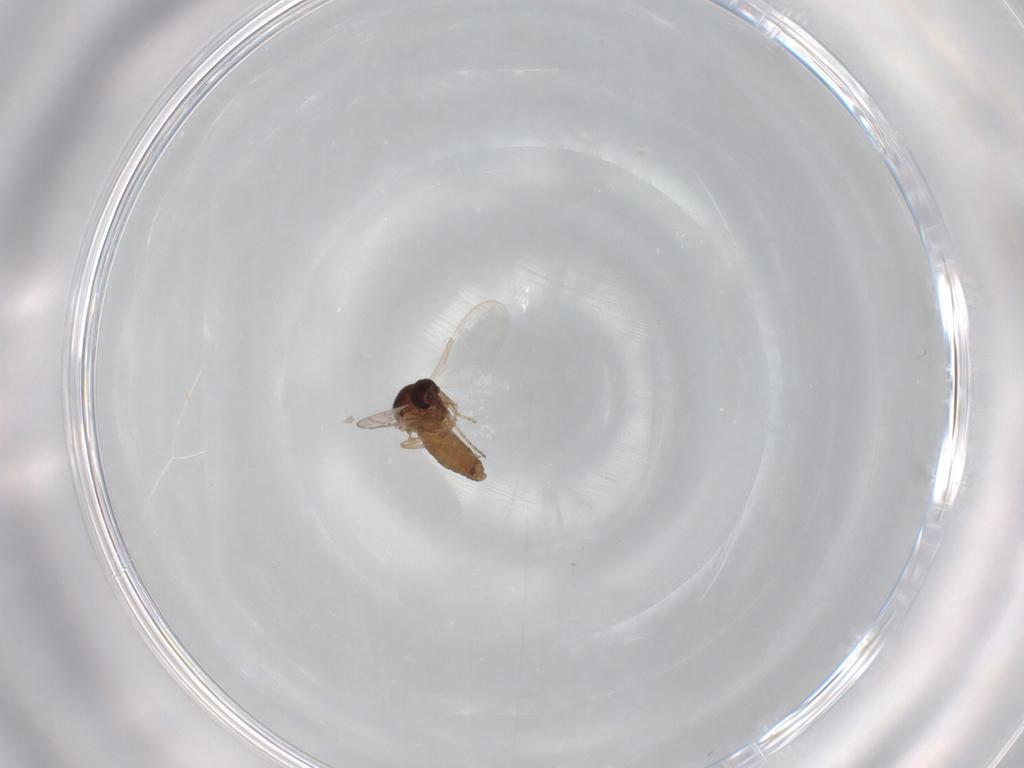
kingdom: Animalia
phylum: Arthropoda
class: Insecta
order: Diptera
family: Ceratopogonidae
